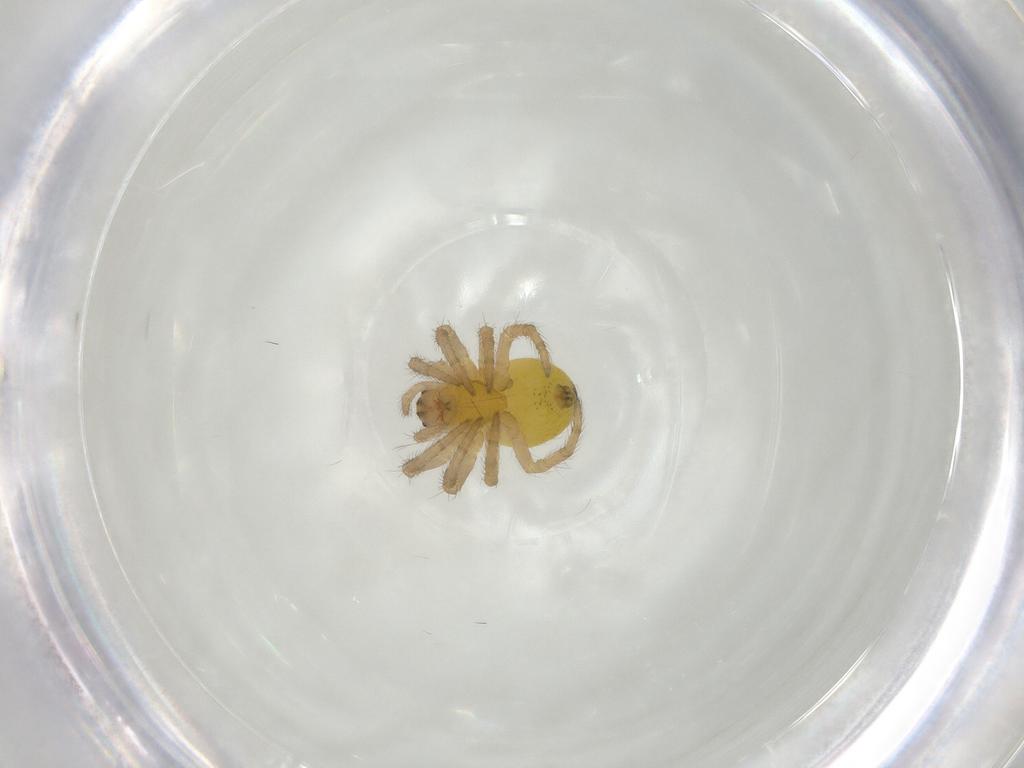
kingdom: Animalia
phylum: Arthropoda
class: Arachnida
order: Araneae
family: Araneidae
